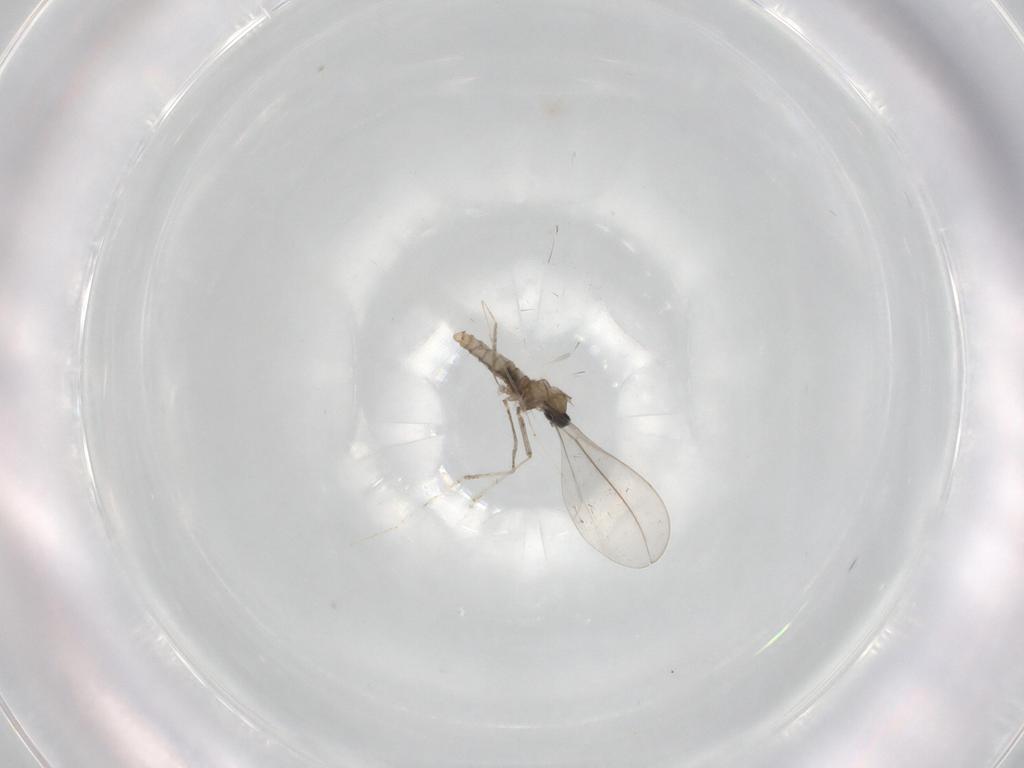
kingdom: Animalia
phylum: Arthropoda
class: Insecta
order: Diptera
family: Cecidomyiidae
